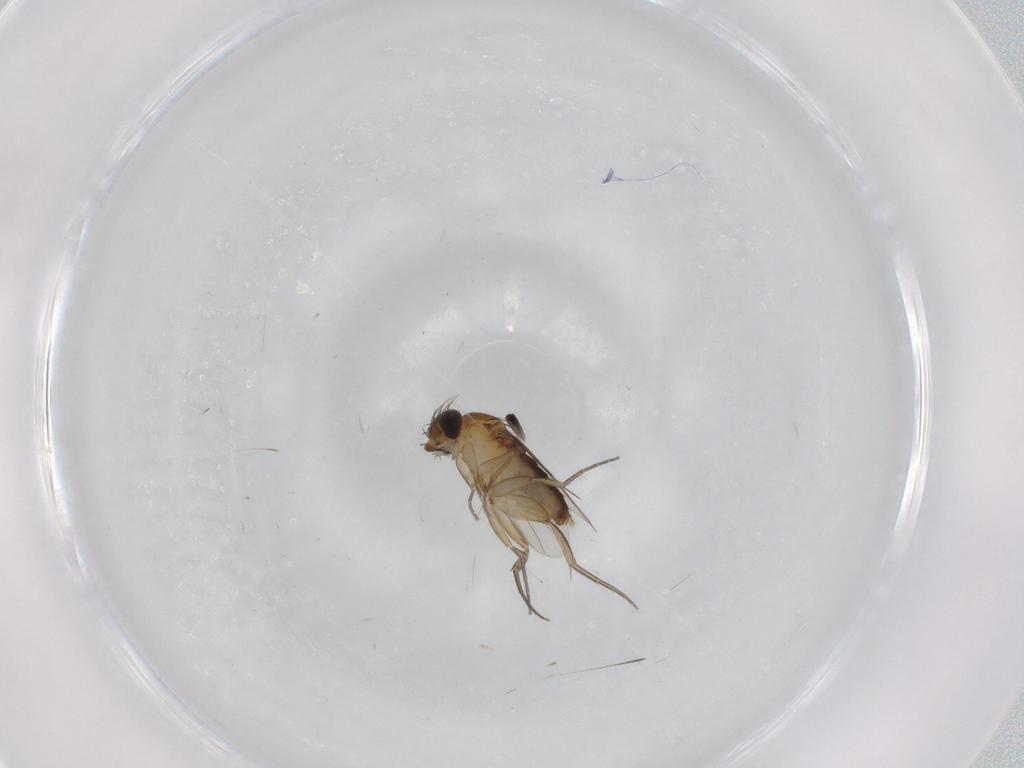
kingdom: Animalia
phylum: Arthropoda
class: Insecta
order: Diptera
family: Phoridae
